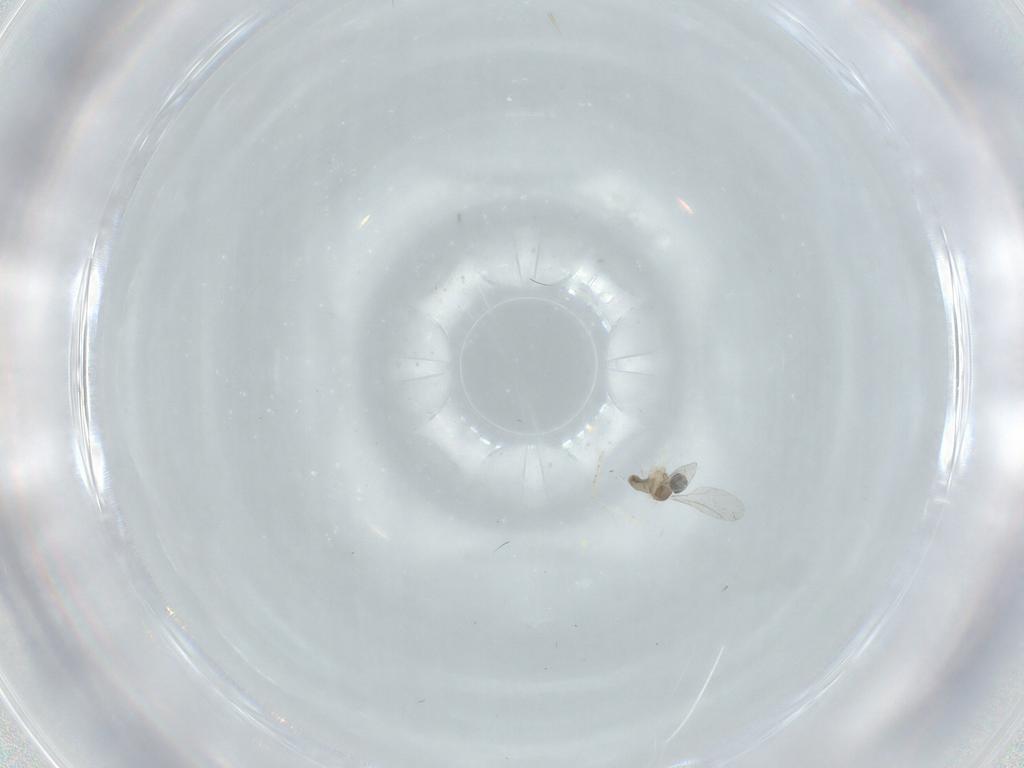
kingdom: Animalia
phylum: Arthropoda
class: Insecta
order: Diptera
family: Cecidomyiidae
